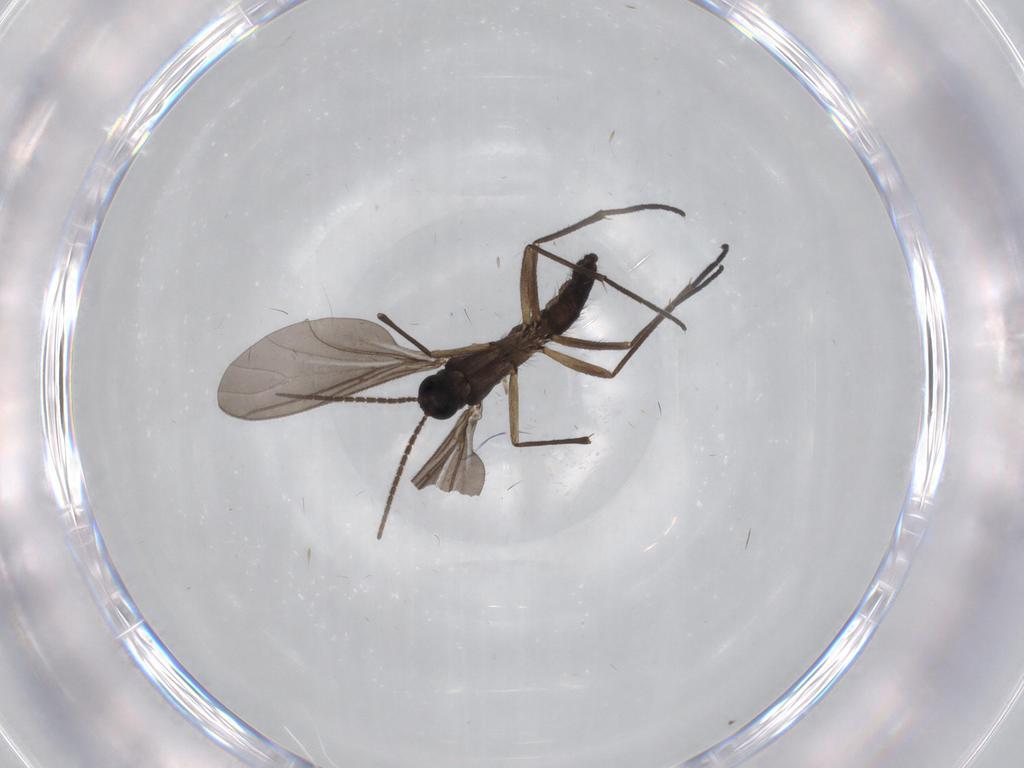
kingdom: Animalia
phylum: Arthropoda
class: Insecta
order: Diptera
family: Sciaridae
